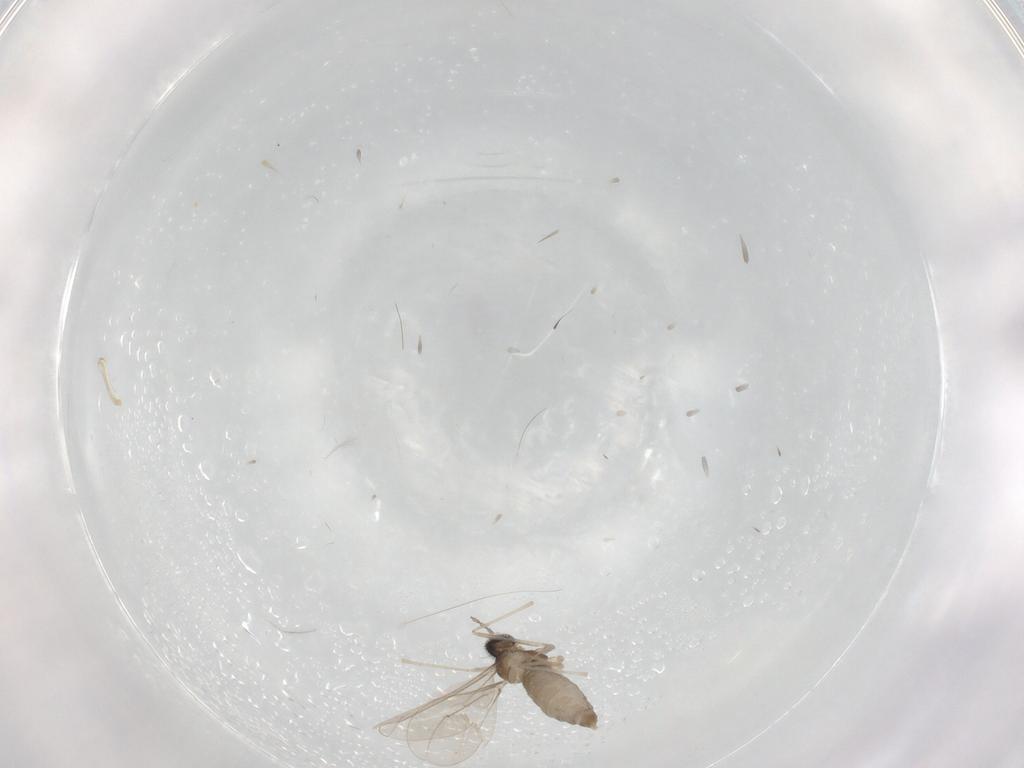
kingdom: Animalia
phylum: Arthropoda
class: Insecta
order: Diptera
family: Cecidomyiidae
